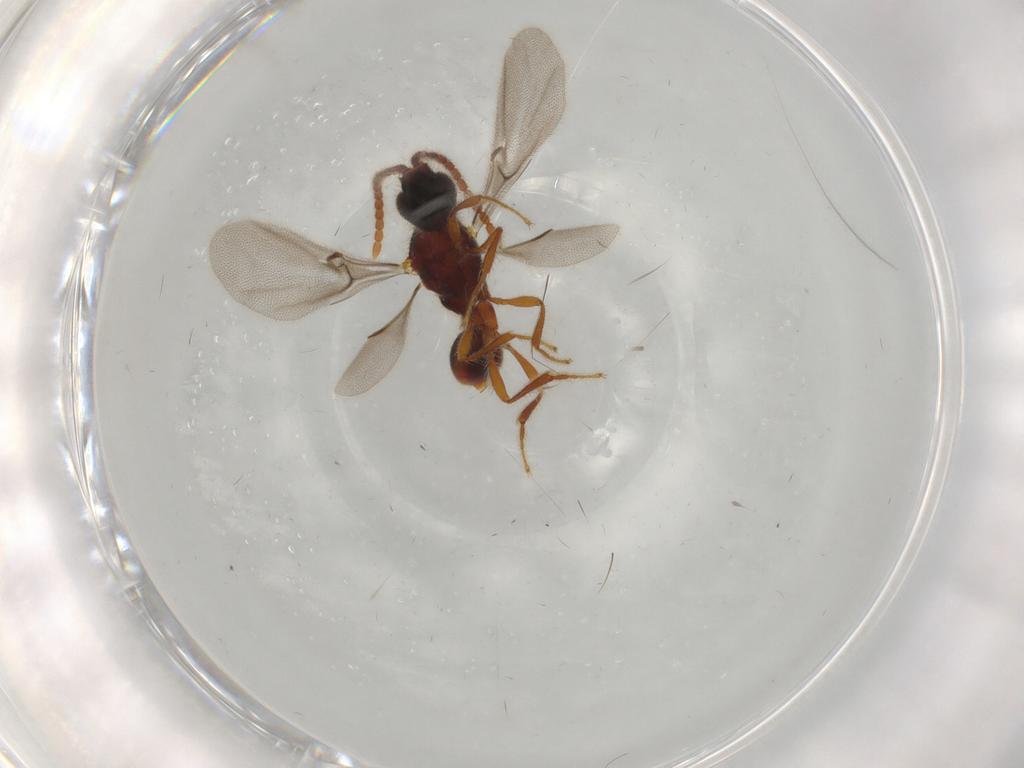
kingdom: Animalia
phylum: Arthropoda
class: Insecta
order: Hymenoptera
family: Diapriidae
